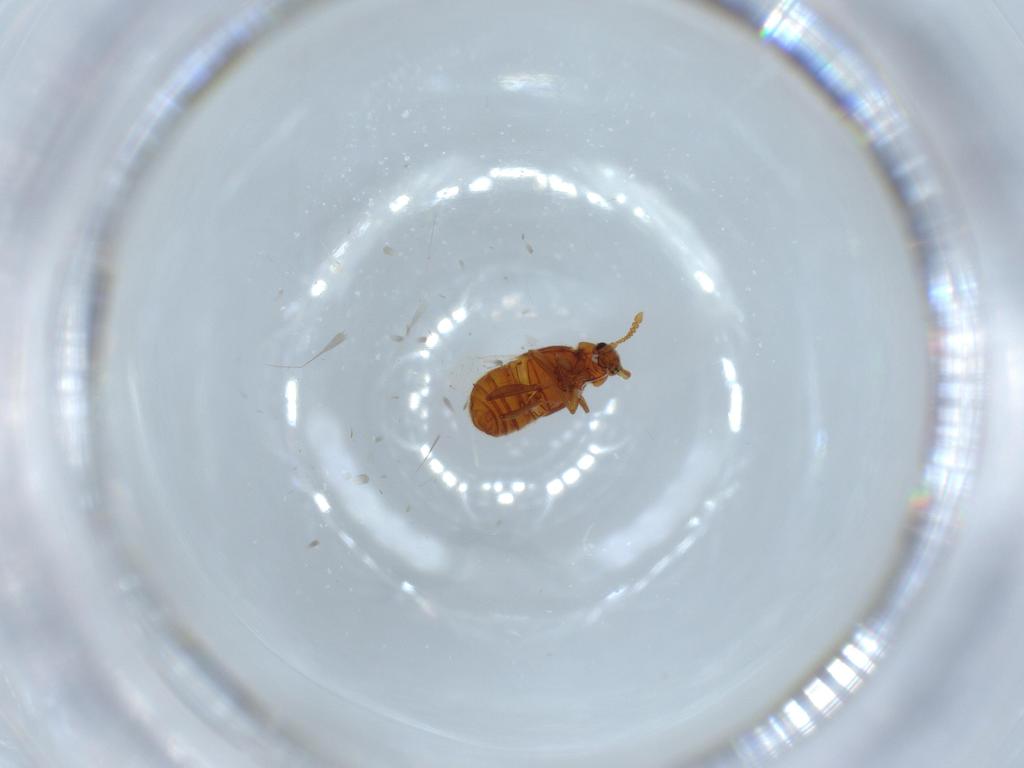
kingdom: Animalia
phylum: Arthropoda
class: Insecta
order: Coleoptera
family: Staphylinidae
